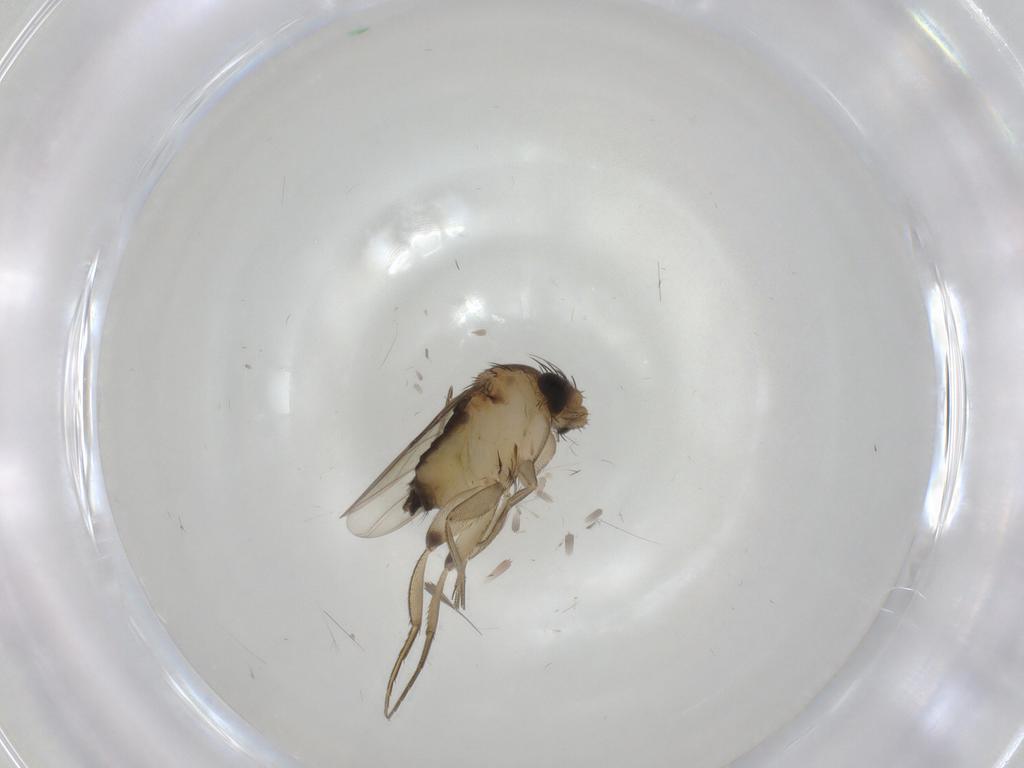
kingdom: Animalia
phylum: Arthropoda
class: Insecta
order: Diptera
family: Phoridae
